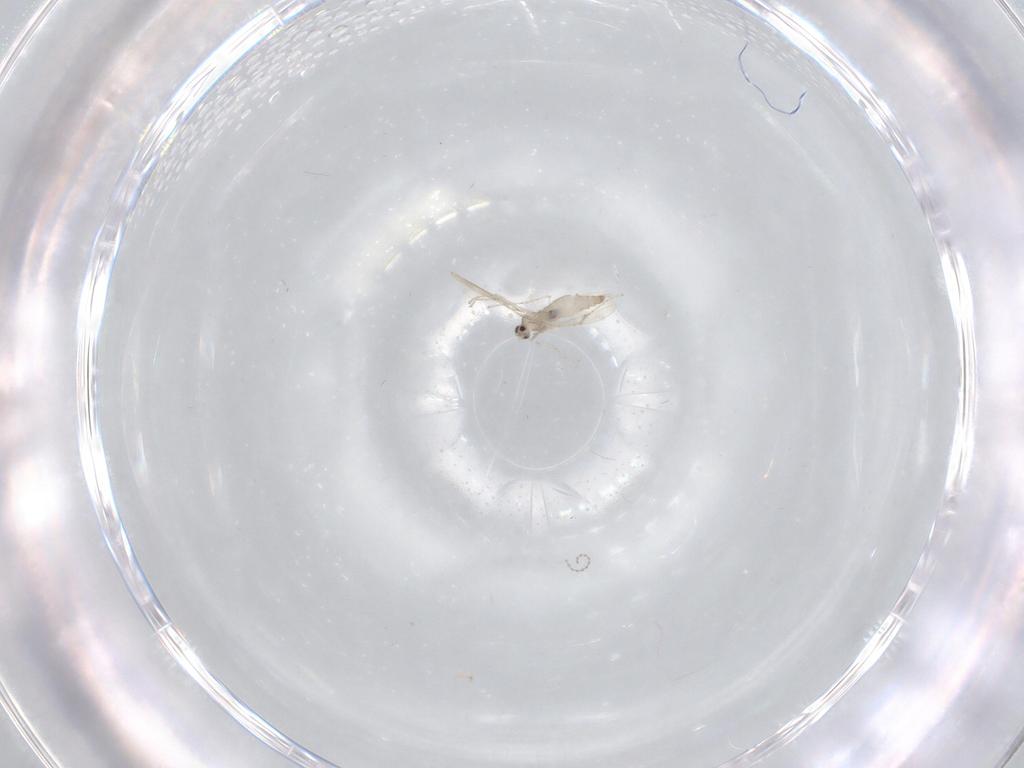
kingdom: Animalia
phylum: Arthropoda
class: Insecta
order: Diptera
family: Cecidomyiidae
